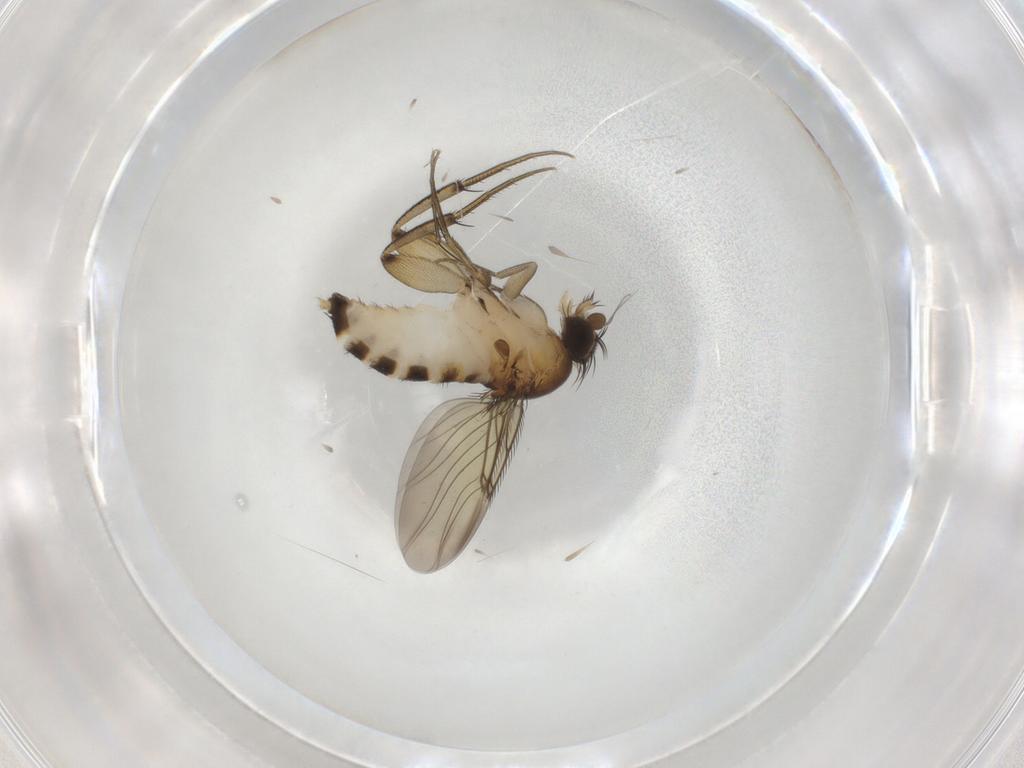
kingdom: Animalia
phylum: Arthropoda
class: Insecta
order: Diptera
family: Phoridae
